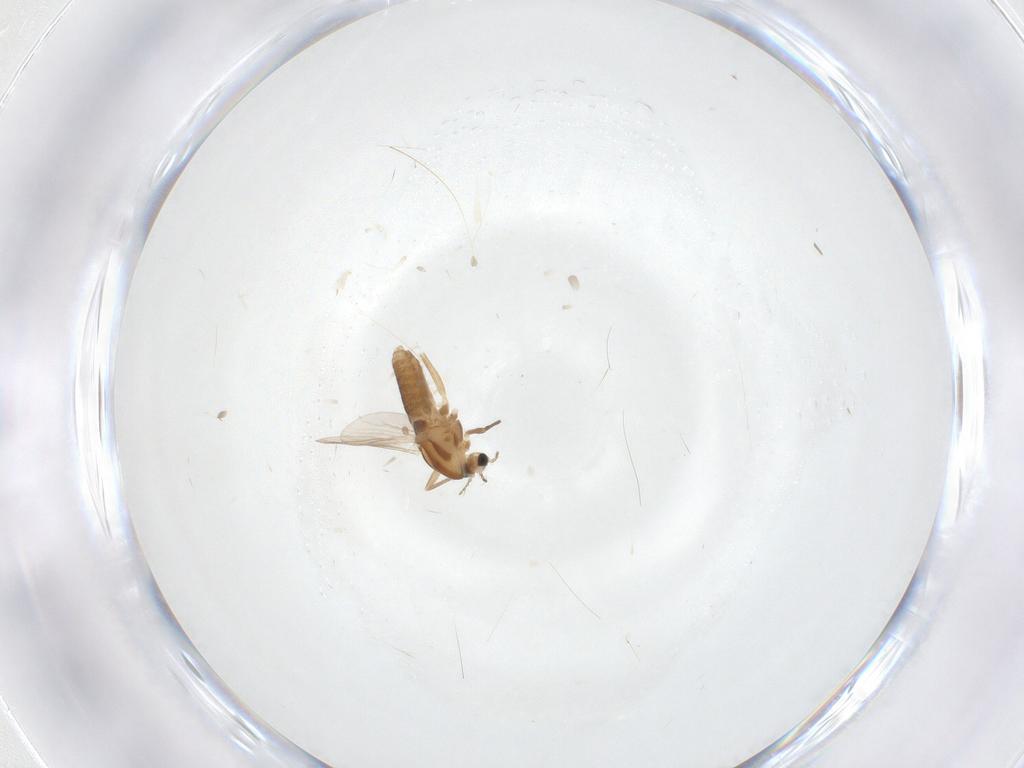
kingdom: Animalia
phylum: Arthropoda
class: Insecta
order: Diptera
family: Chironomidae
